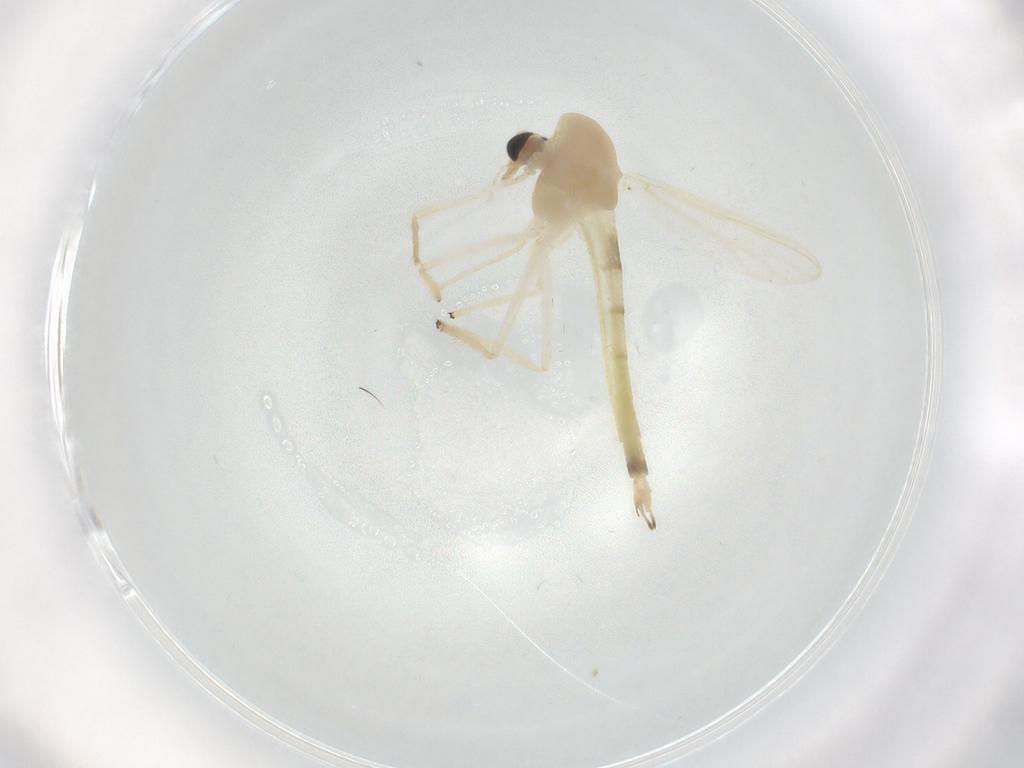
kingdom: Animalia
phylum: Arthropoda
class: Insecta
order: Diptera
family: Chironomidae
